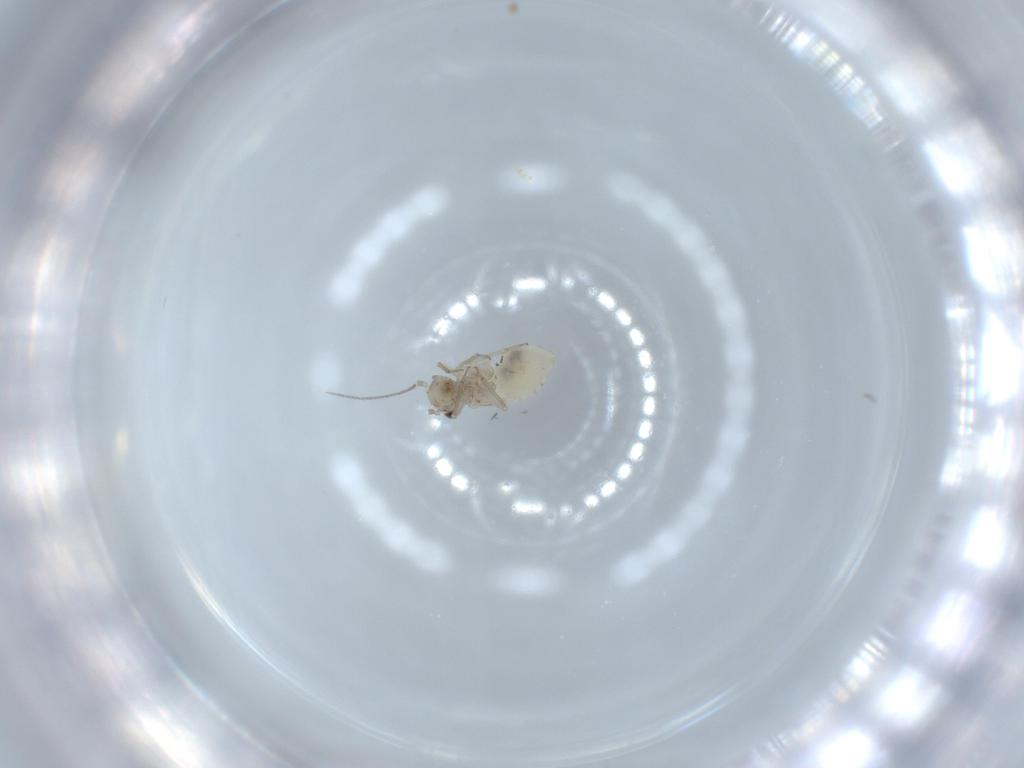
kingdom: Animalia
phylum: Arthropoda
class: Insecta
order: Psocodea
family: Lachesillidae
